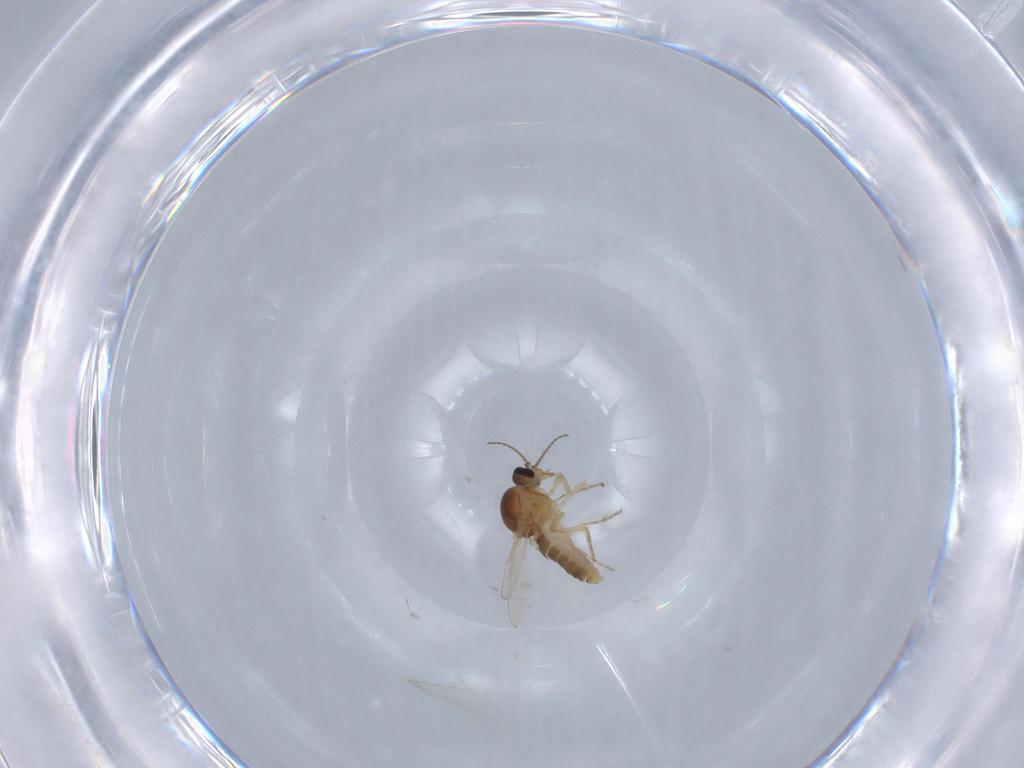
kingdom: Animalia
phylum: Arthropoda
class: Insecta
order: Diptera
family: Ceratopogonidae
